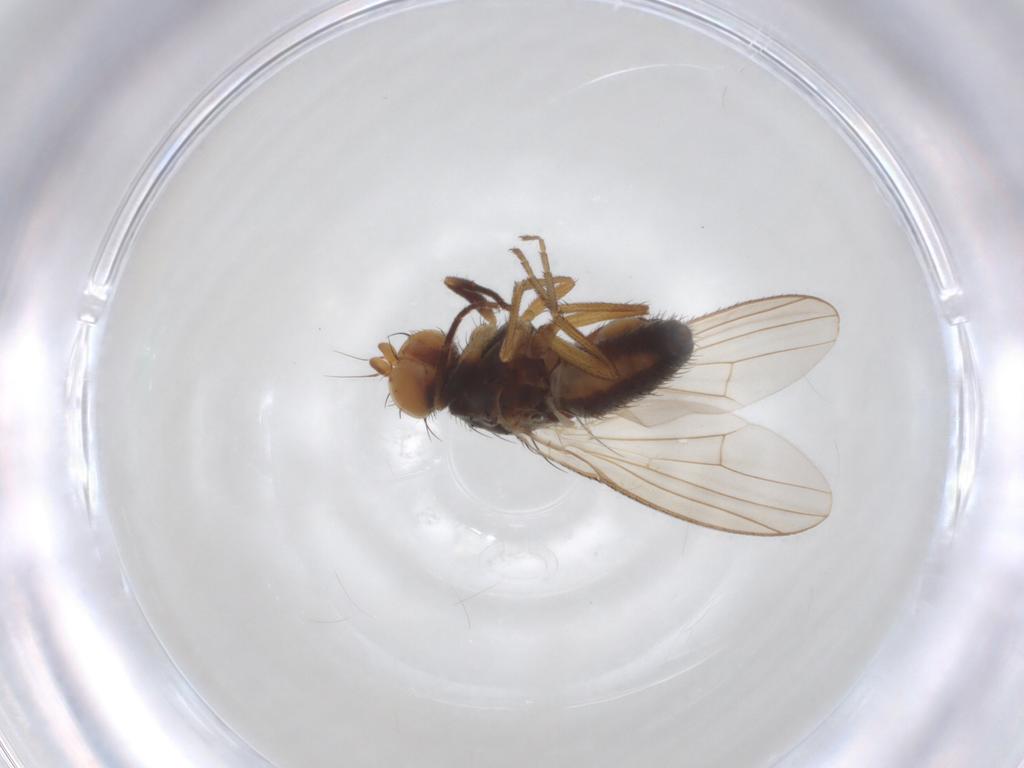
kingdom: Animalia
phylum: Arthropoda
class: Insecta
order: Diptera
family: Heleomyzidae
